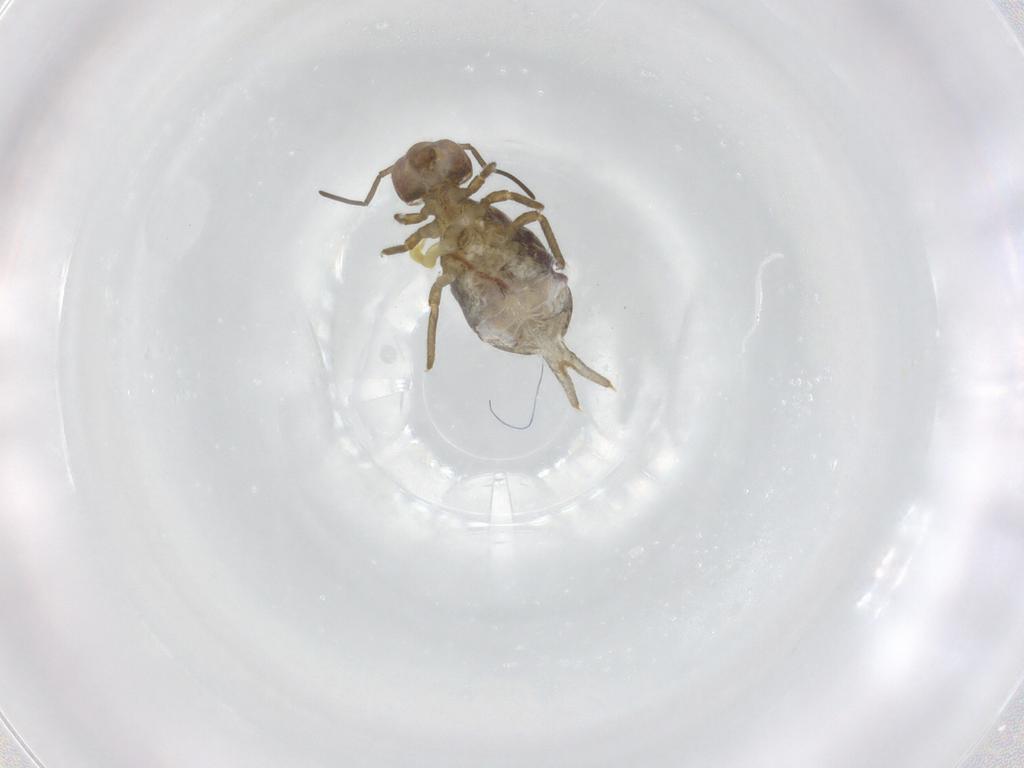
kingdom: Animalia
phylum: Arthropoda
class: Collembola
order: Symphypleona
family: Sminthuridae
